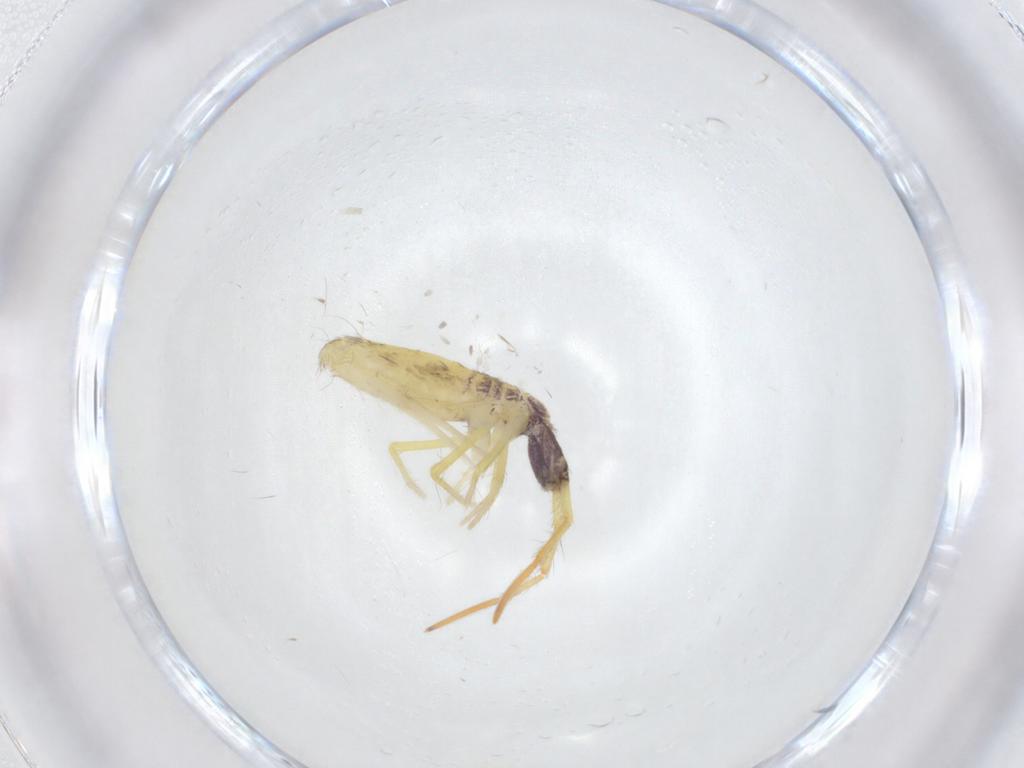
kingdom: Animalia
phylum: Arthropoda
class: Collembola
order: Entomobryomorpha
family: Entomobryidae
